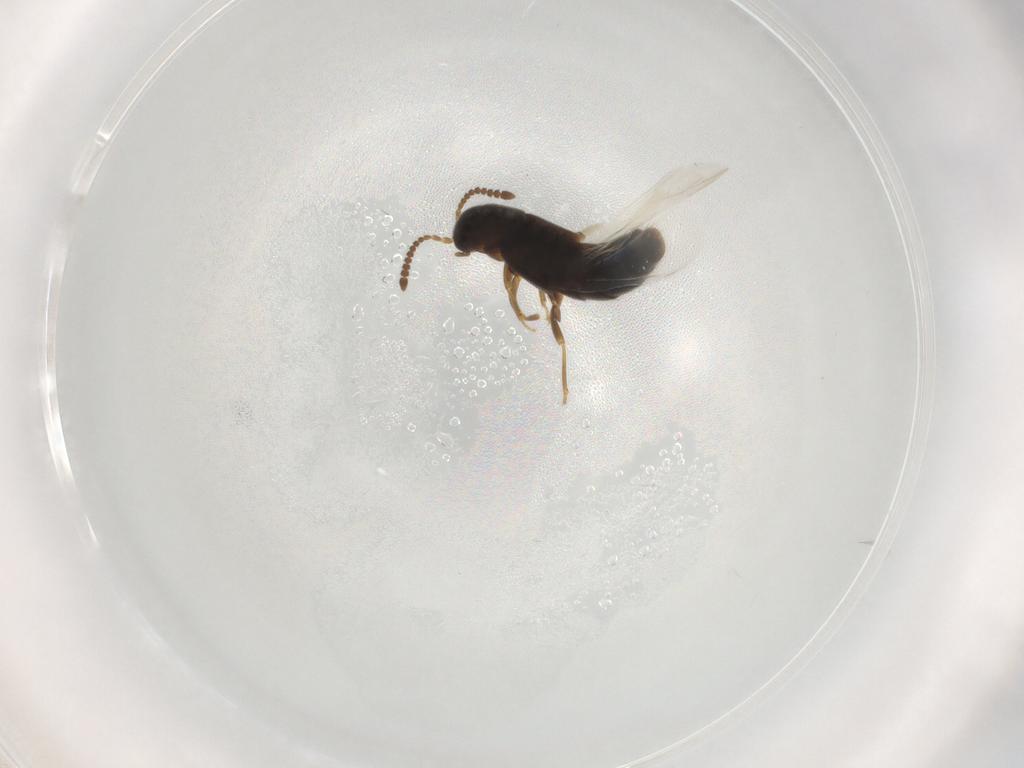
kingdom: Animalia
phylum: Arthropoda
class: Insecta
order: Coleoptera
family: Staphylinidae
